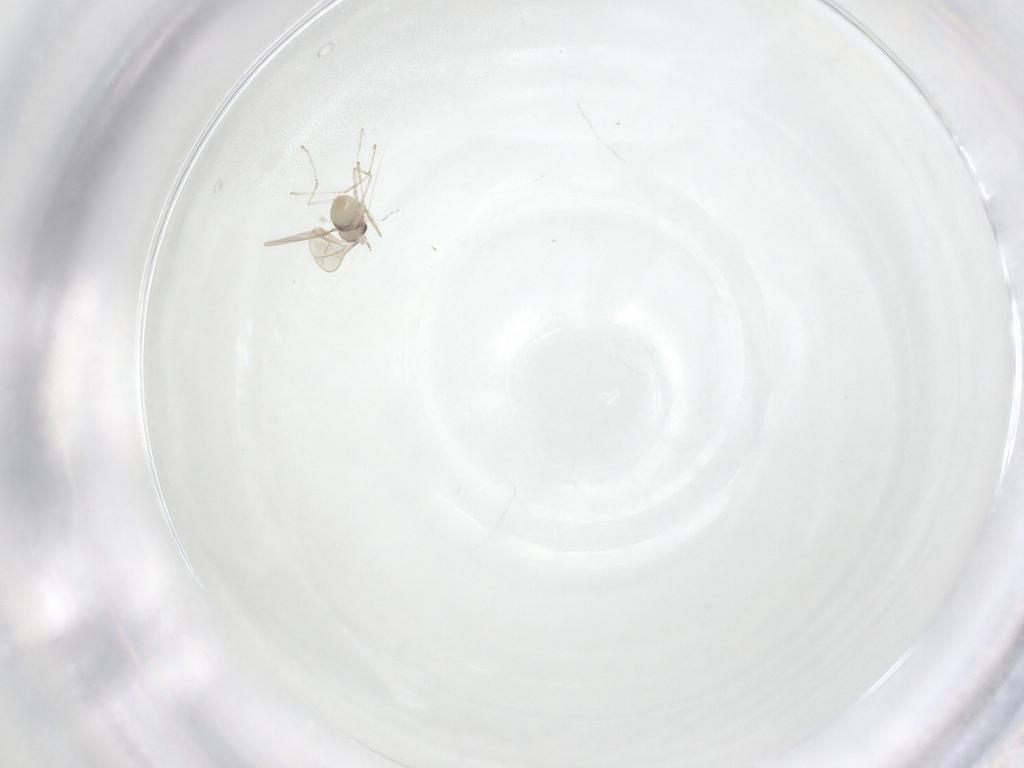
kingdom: Animalia
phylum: Arthropoda
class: Insecta
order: Diptera
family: Cecidomyiidae
